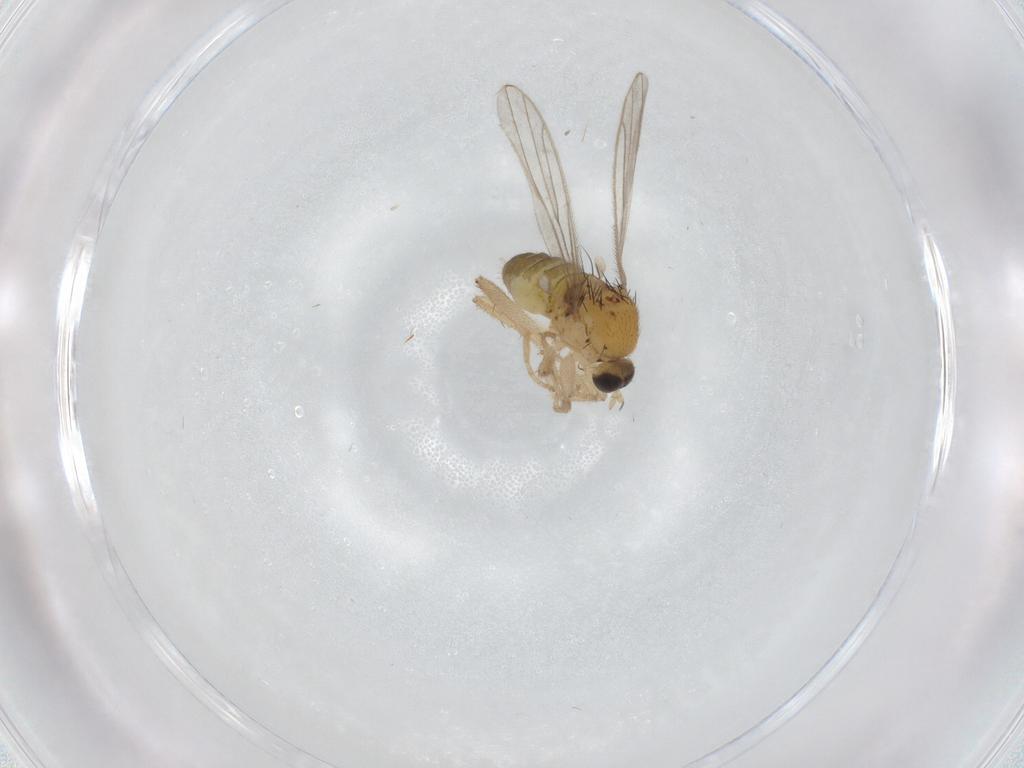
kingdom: Animalia
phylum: Arthropoda
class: Insecta
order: Diptera
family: Hybotidae
